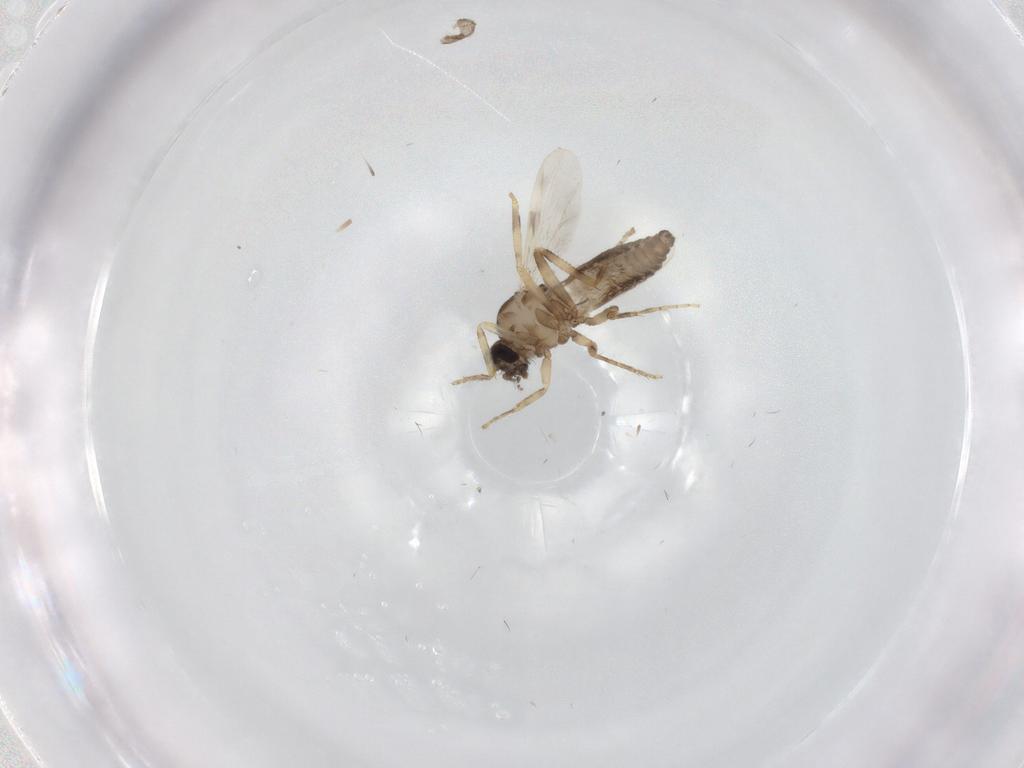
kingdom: Animalia
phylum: Arthropoda
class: Insecta
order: Diptera
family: Ceratopogonidae
